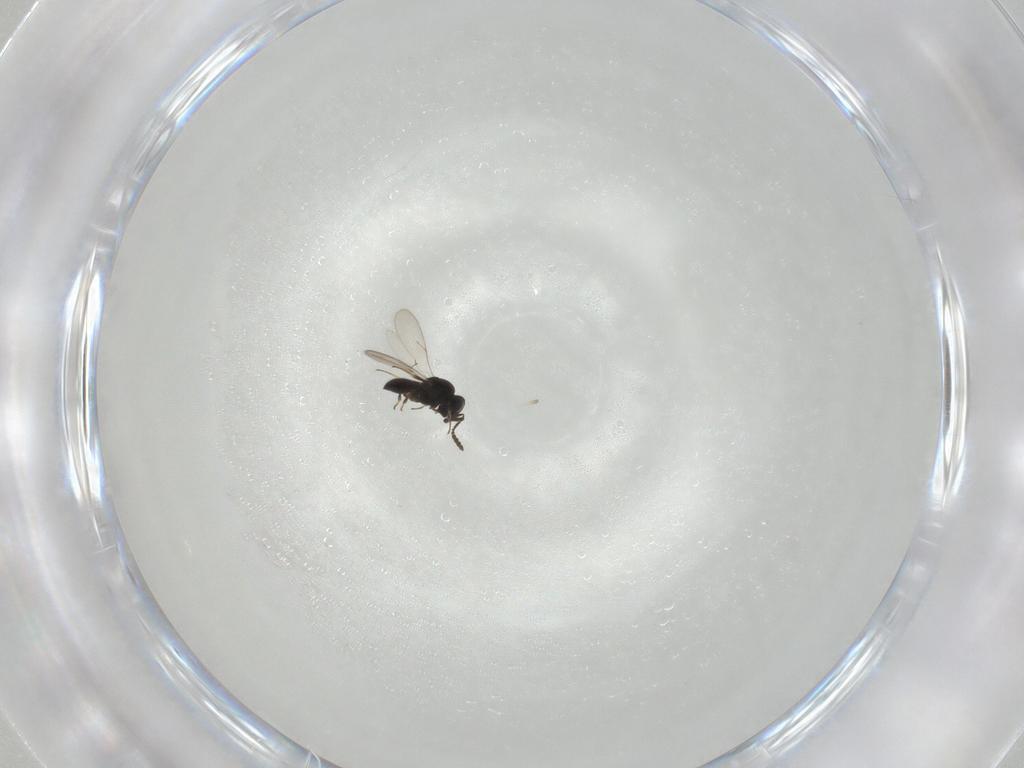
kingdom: Animalia
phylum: Arthropoda
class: Insecta
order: Hymenoptera
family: Scelionidae
